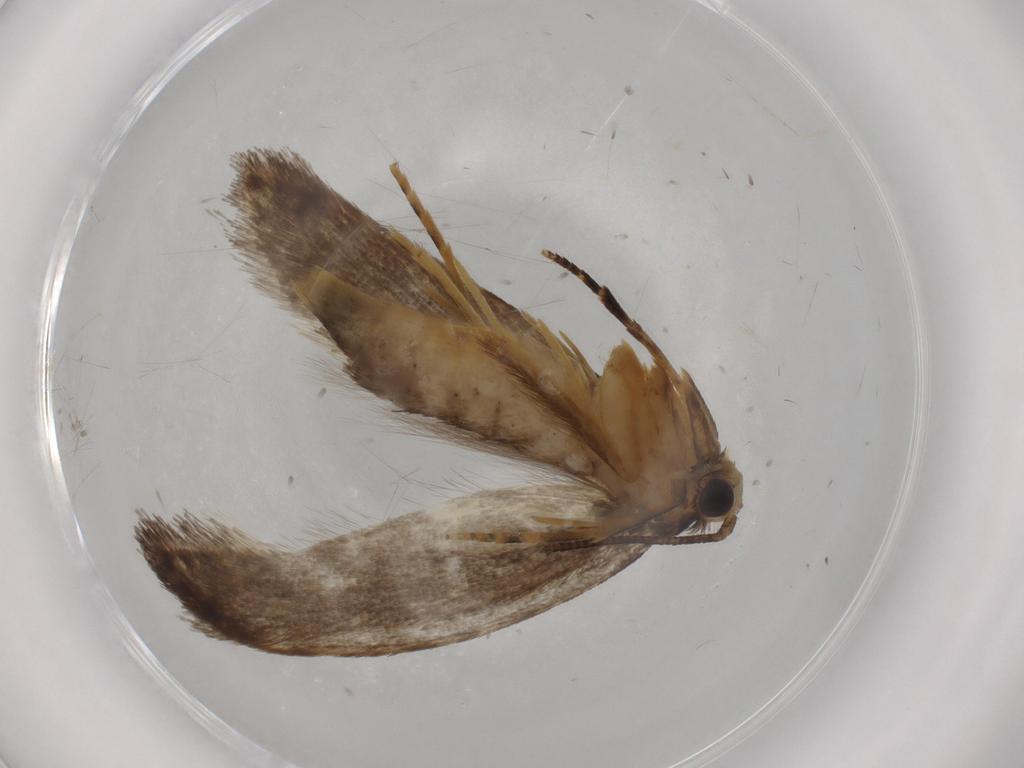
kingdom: Animalia
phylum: Arthropoda
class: Insecta
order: Lepidoptera
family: Tineidae
